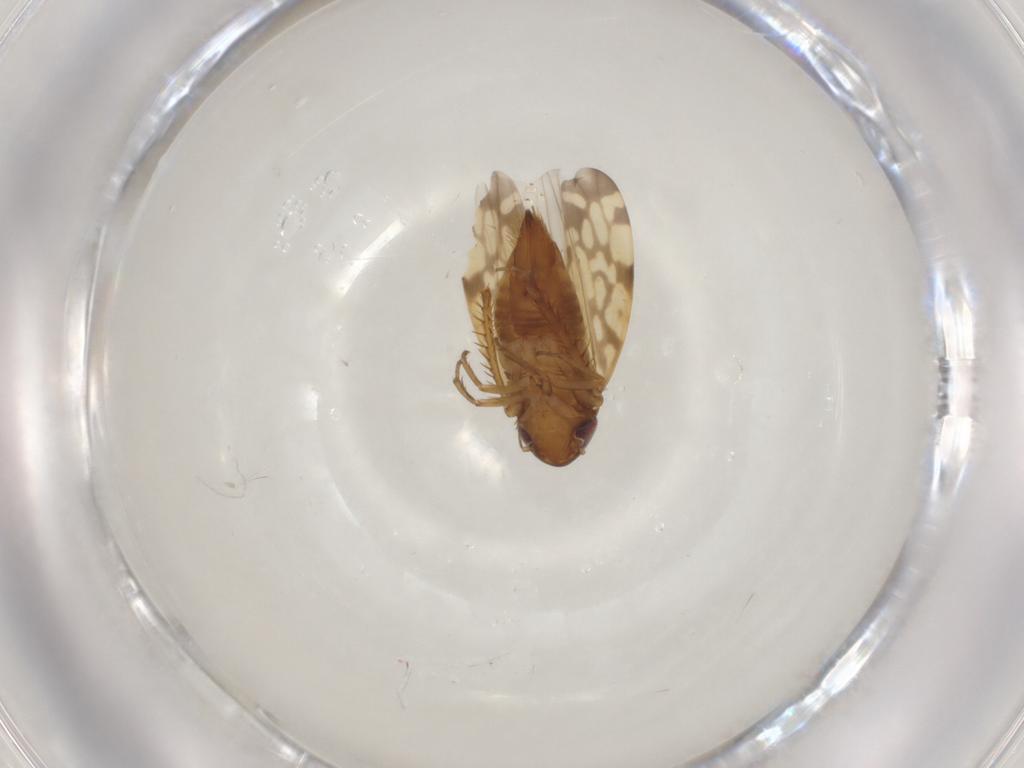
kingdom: Animalia
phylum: Arthropoda
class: Insecta
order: Hemiptera
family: Cicadellidae
